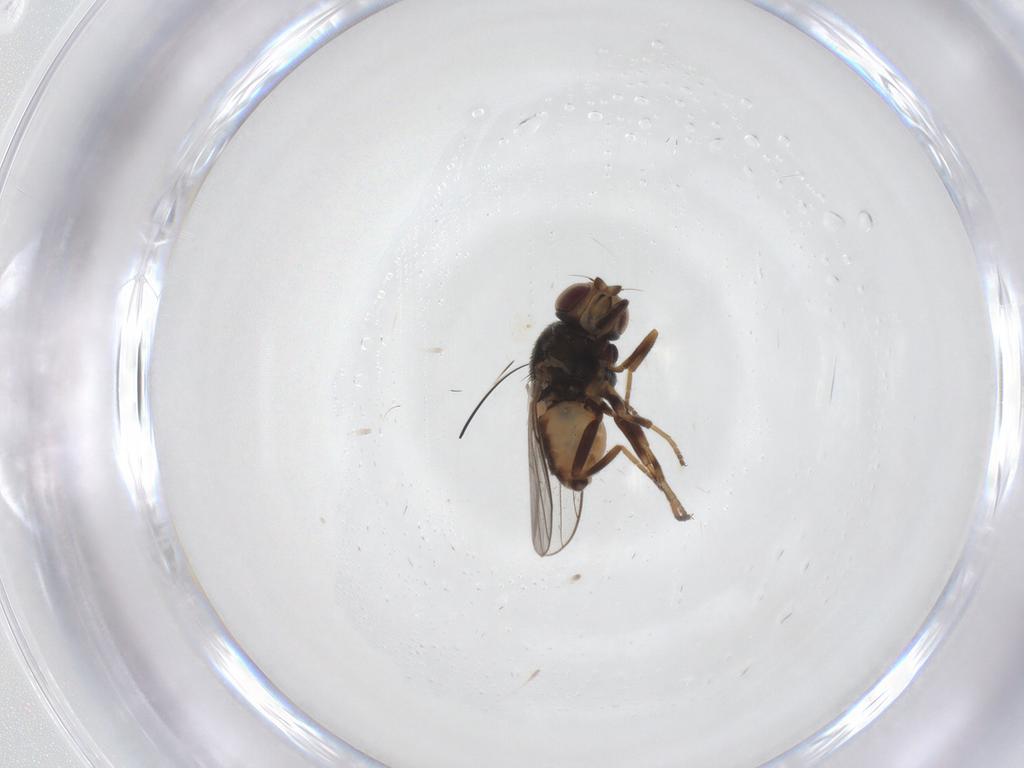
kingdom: Animalia
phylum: Arthropoda
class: Insecta
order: Diptera
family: Chloropidae
